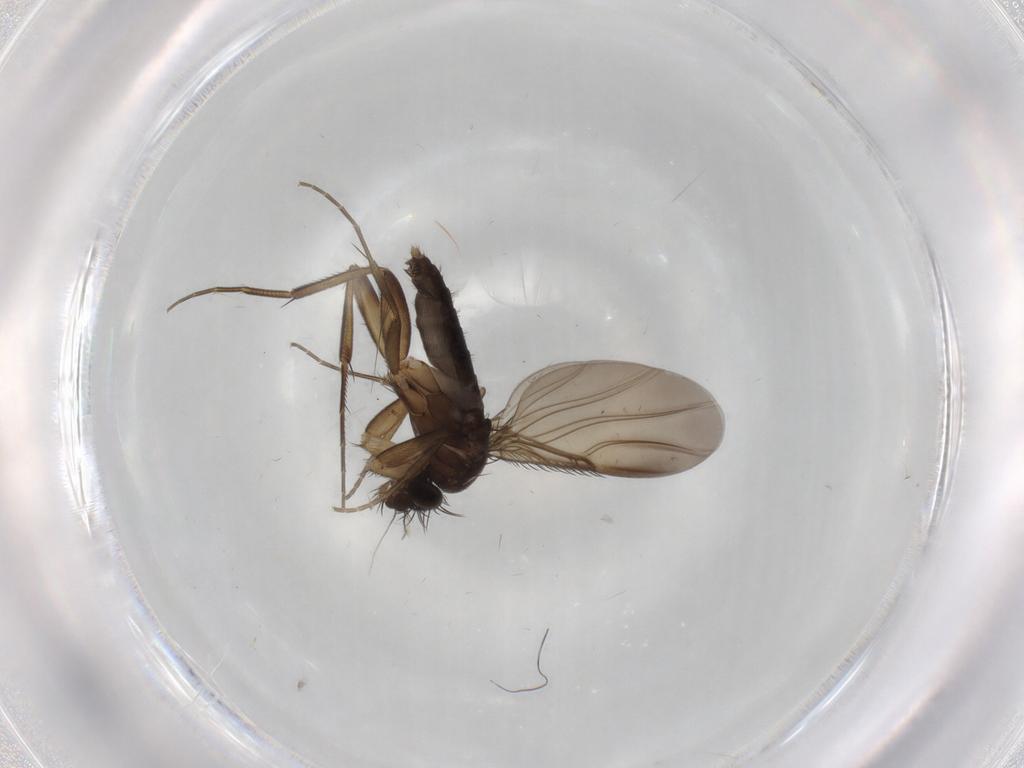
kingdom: Animalia
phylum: Arthropoda
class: Insecta
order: Diptera
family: Phoridae
